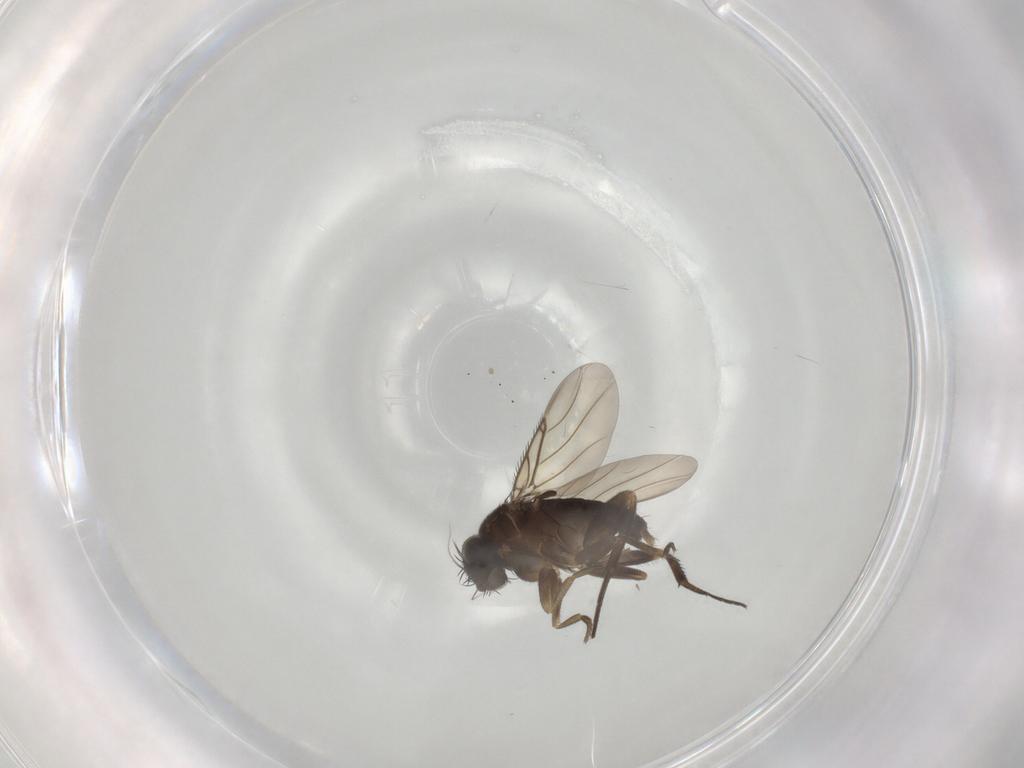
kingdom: Animalia
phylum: Arthropoda
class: Insecta
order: Diptera
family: Phoridae
